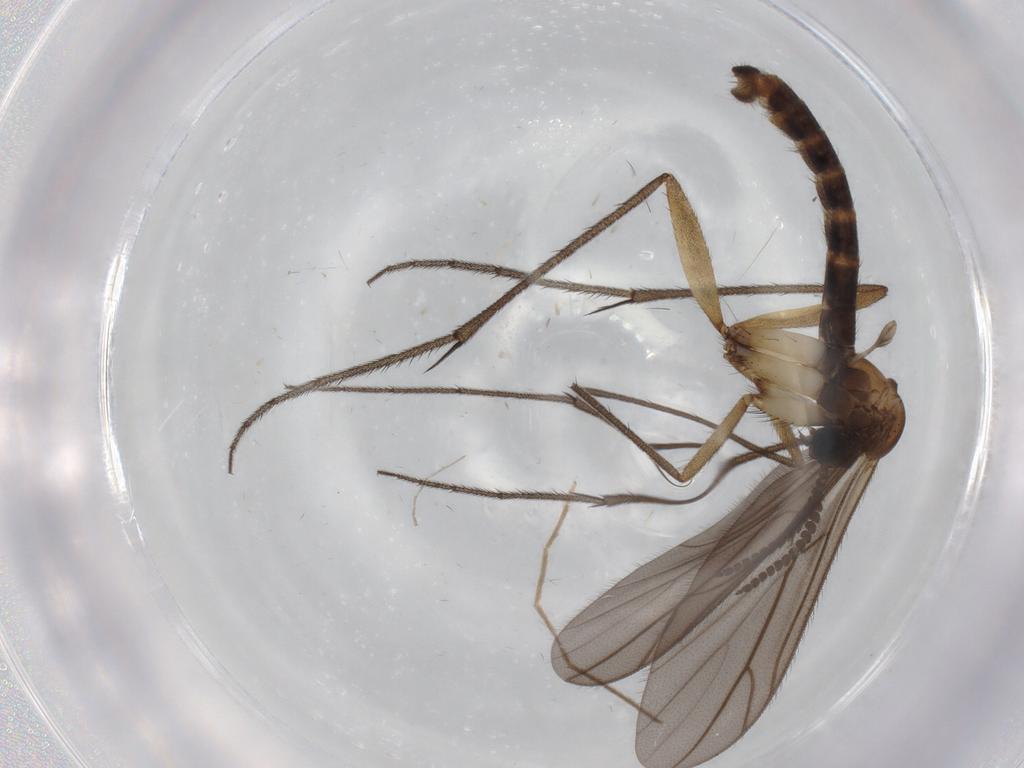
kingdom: Animalia
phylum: Arthropoda
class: Insecta
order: Diptera
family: Ditomyiidae
